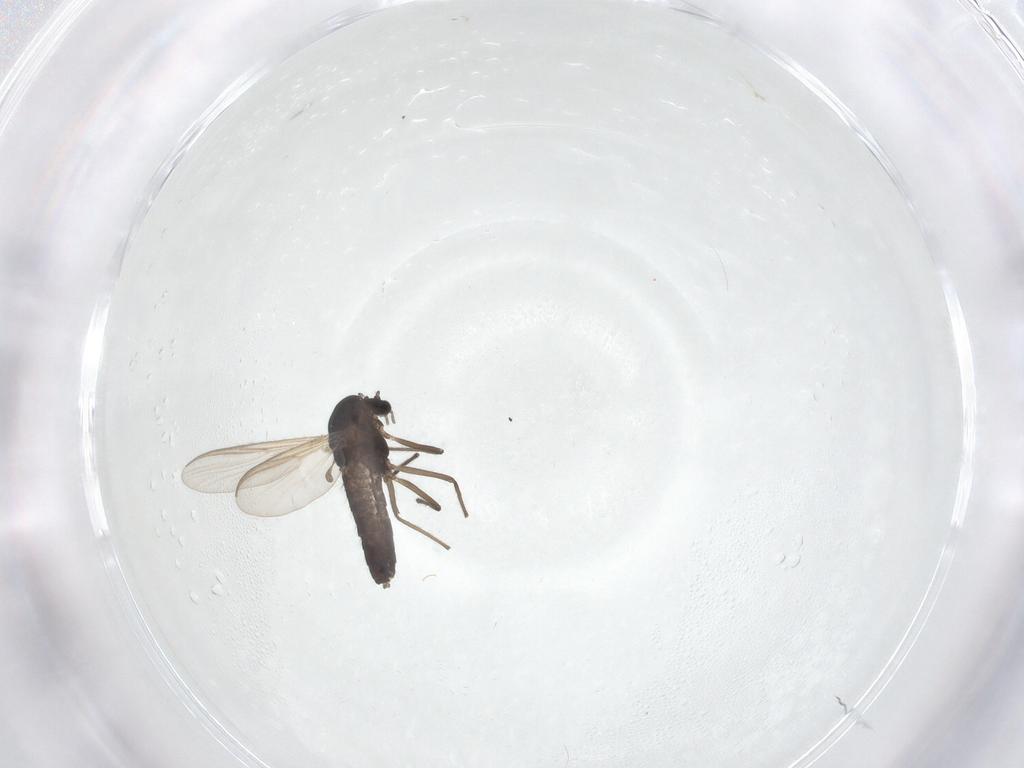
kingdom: Animalia
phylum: Arthropoda
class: Insecta
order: Diptera
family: Chironomidae
